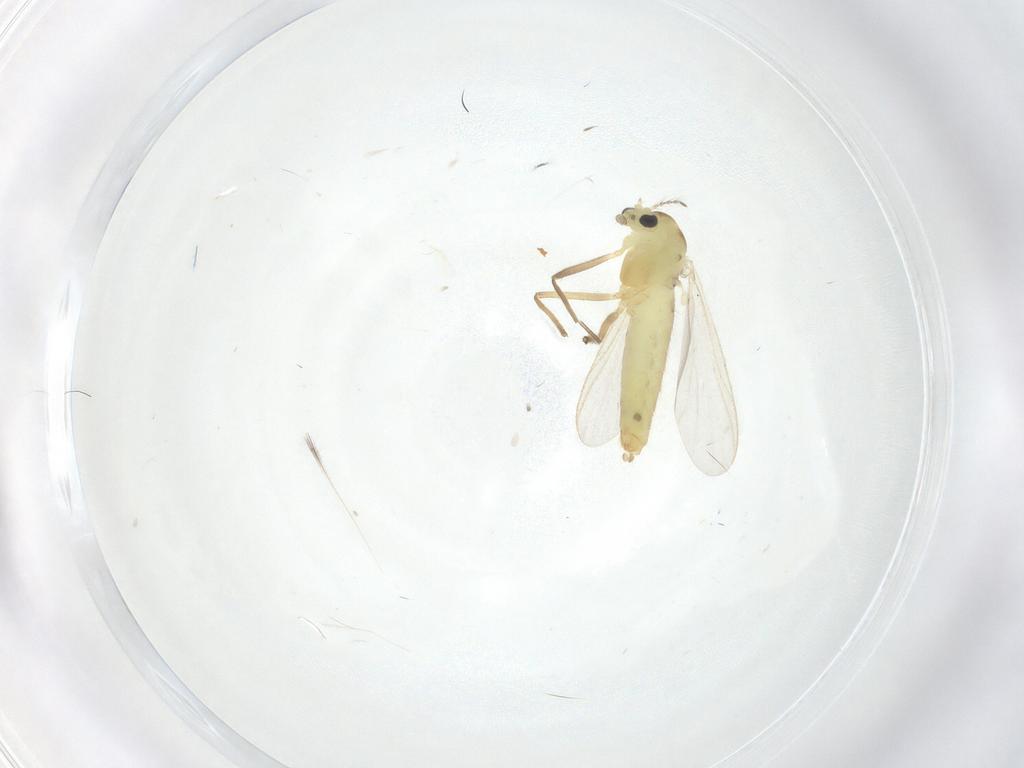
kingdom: Animalia
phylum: Arthropoda
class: Insecta
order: Diptera
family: Chironomidae
